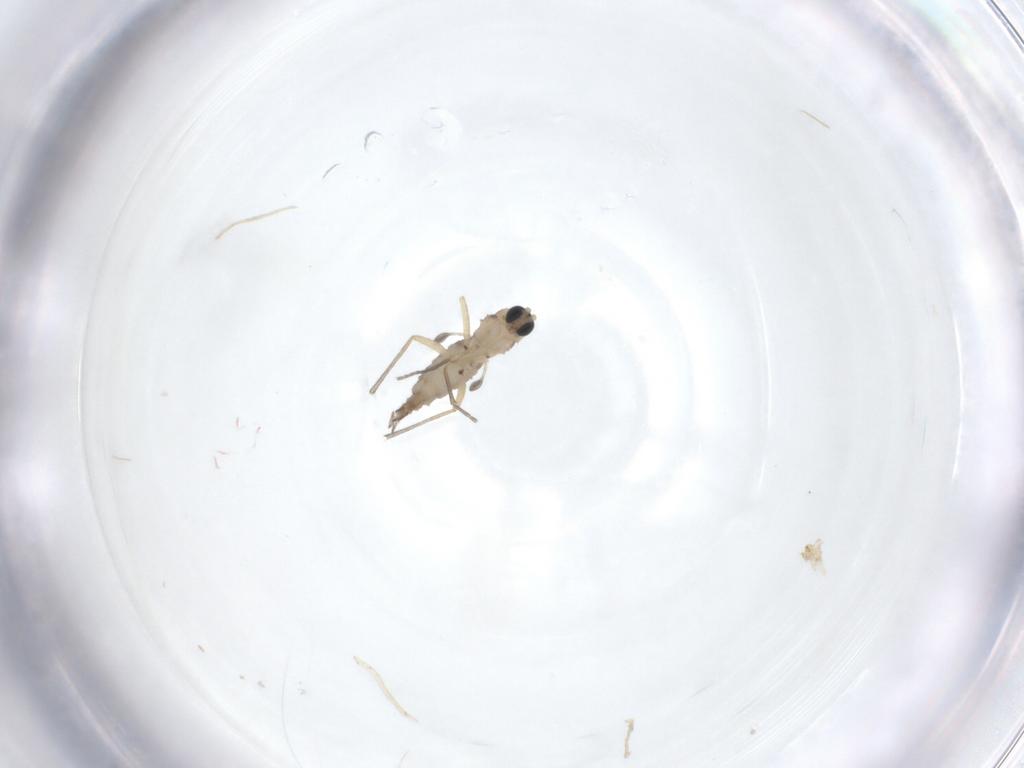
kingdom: Animalia
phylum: Arthropoda
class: Insecta
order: Diptera
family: Sciaridae
